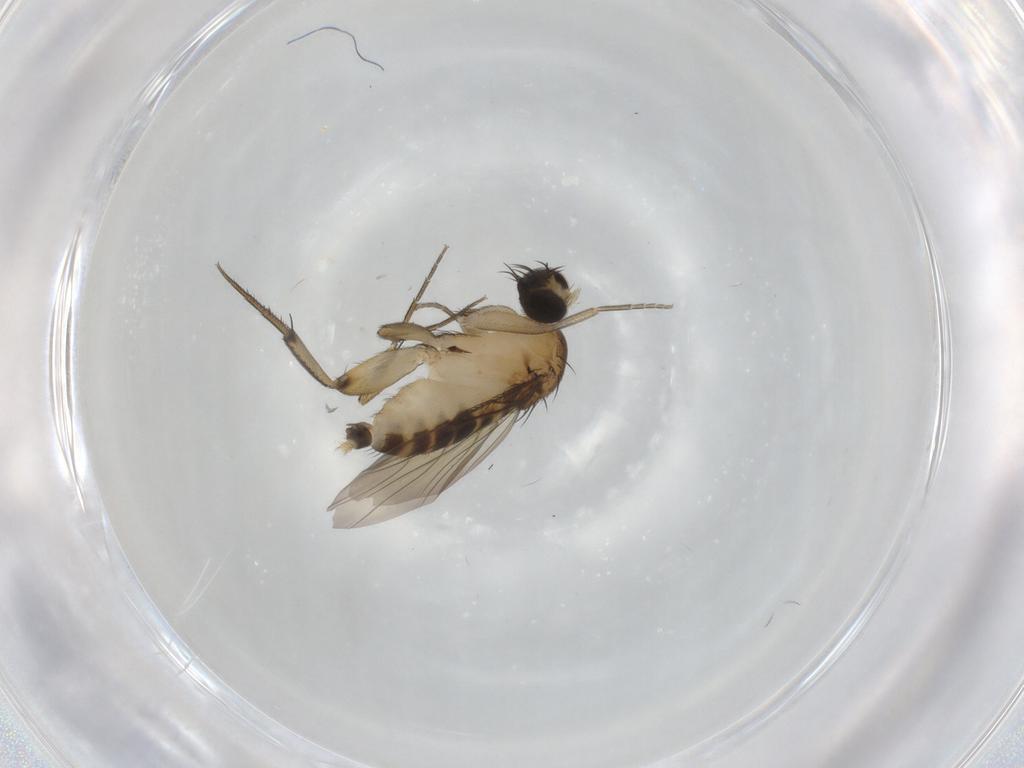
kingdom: Animalia
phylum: Arthropoda
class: Insecta
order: Diptera
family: Phoridae
